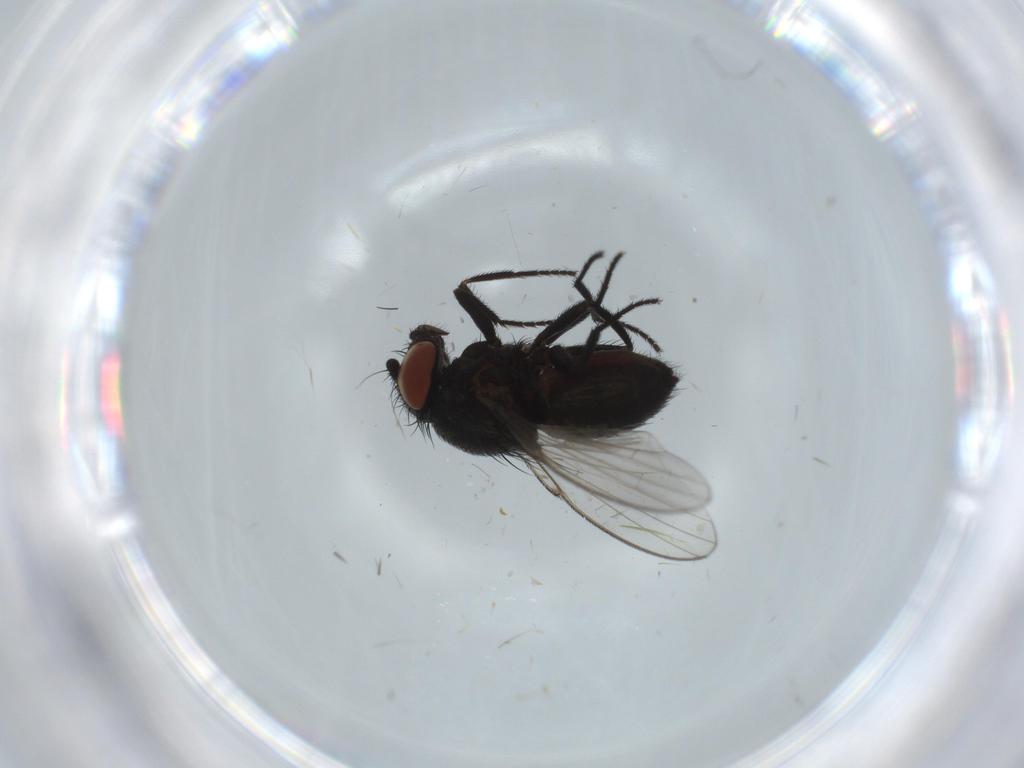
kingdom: Animalia
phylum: Arthropoda
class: Insecta
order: Diptera
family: Milichiidae
